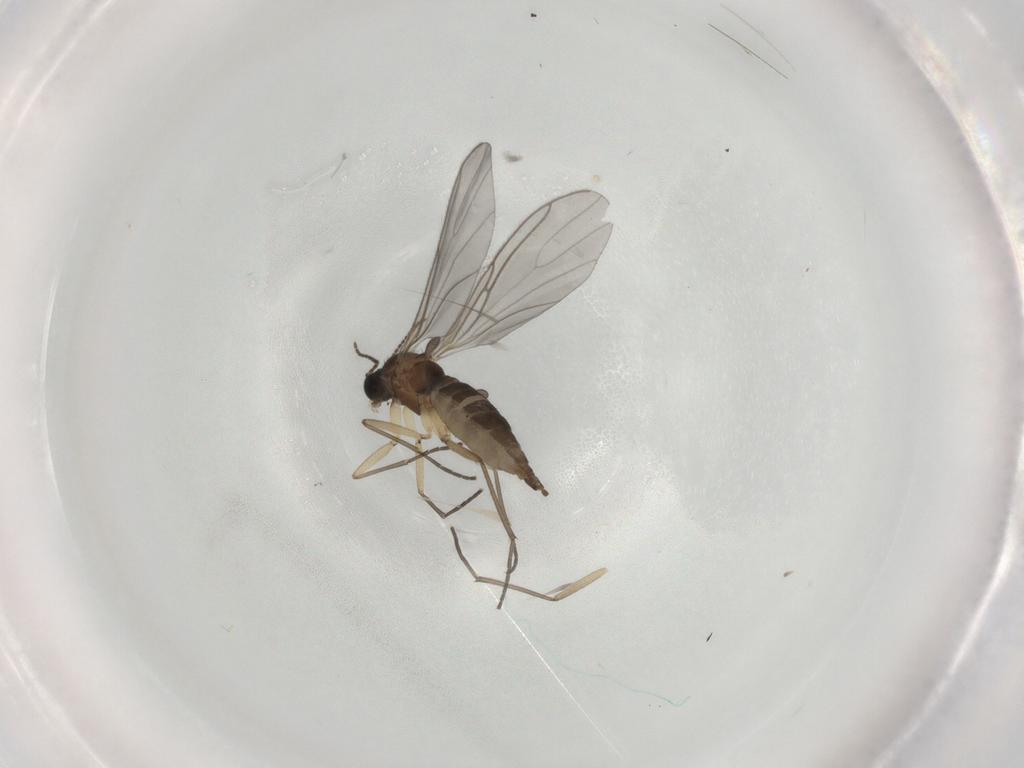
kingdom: Animalia
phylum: Arthropoda
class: Insecta
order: Diptera
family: Sciaridae
